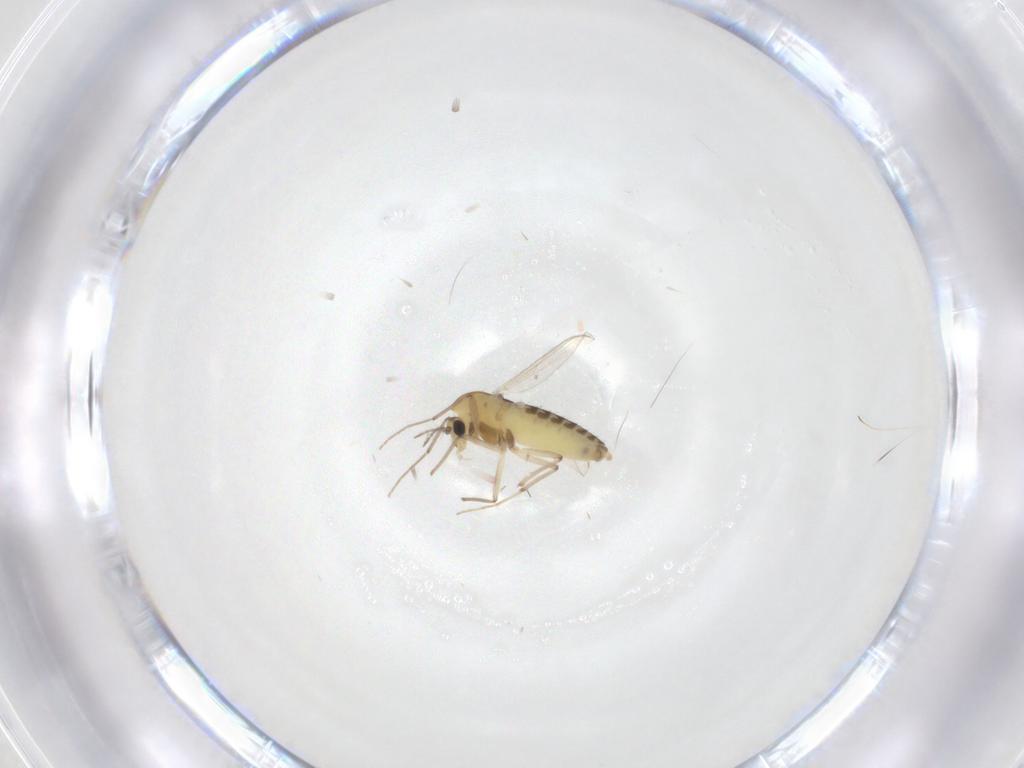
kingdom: Animalia
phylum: Arthropoda
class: Insecta
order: Diptera
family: Chironomidae
